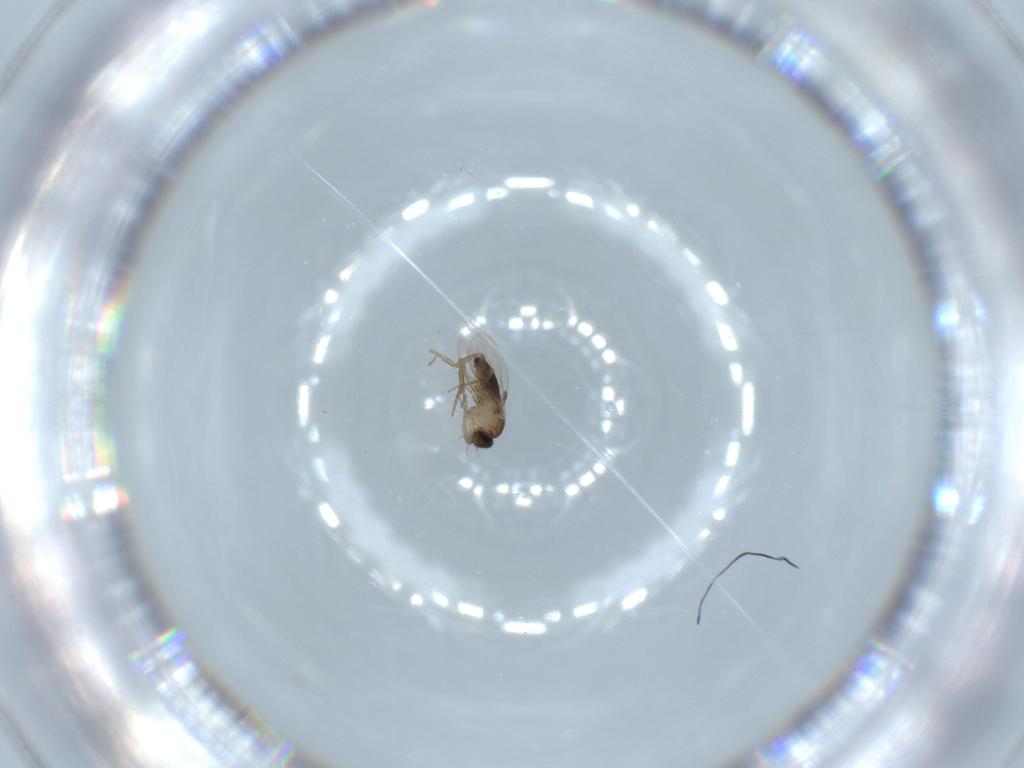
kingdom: Animalia
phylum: Arthropoda
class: Insecta
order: Diptera
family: Phoridae
